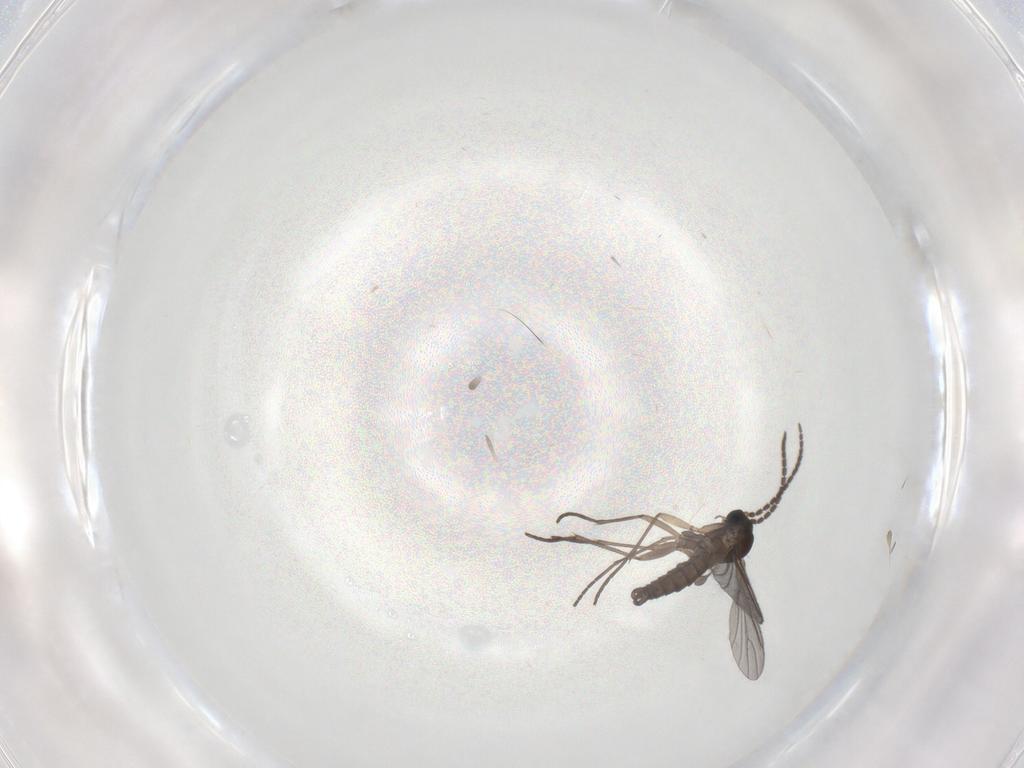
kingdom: Animalia
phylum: Arthropoda
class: Insecta
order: Diptera
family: Sciaridae
